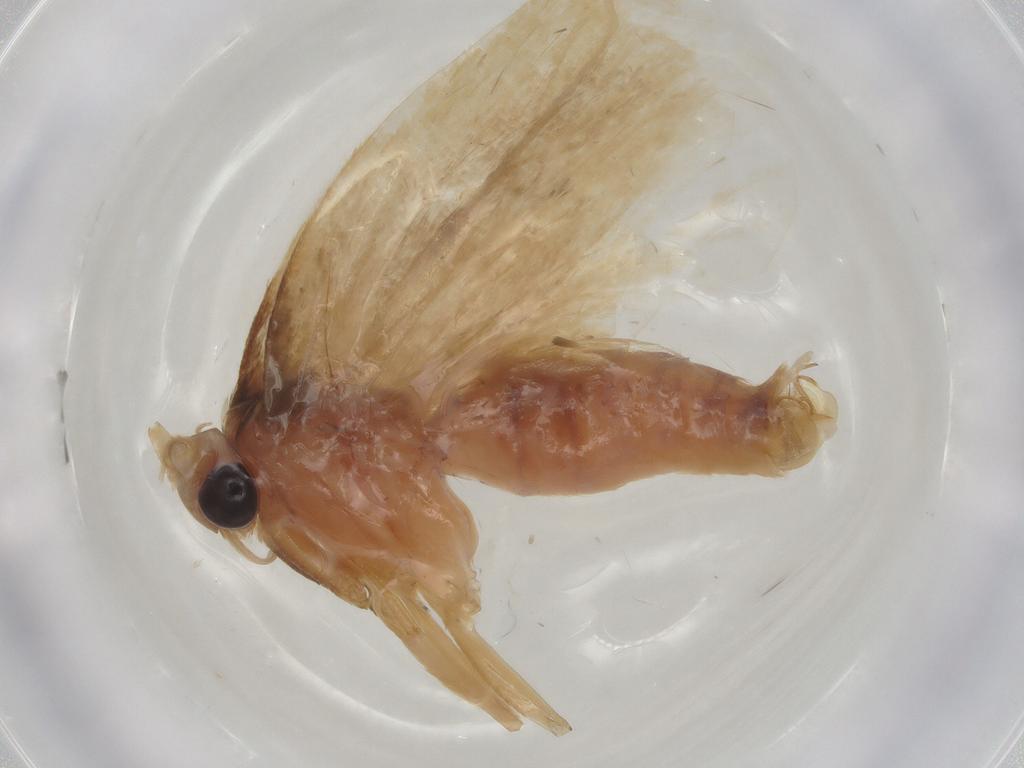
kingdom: Animalia
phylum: Arthropoda
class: Insecta
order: Lepidoptera
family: Depressariidae
